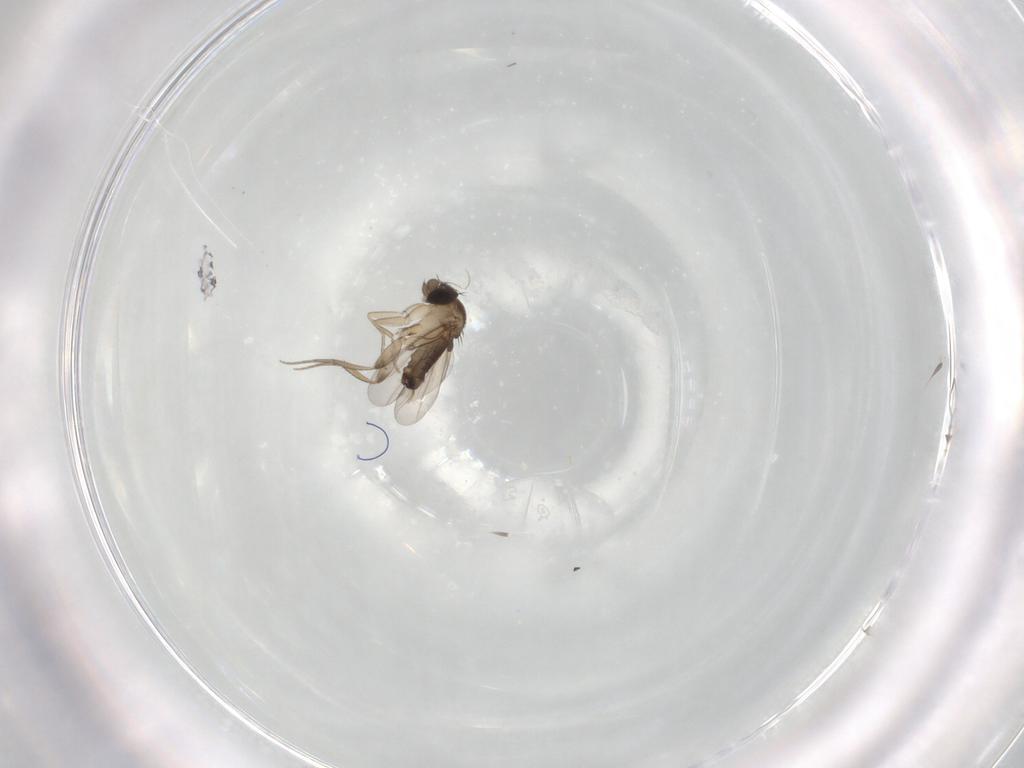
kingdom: Animalia
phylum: Arthropoda
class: Insecta
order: Diptera
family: Phoridae
